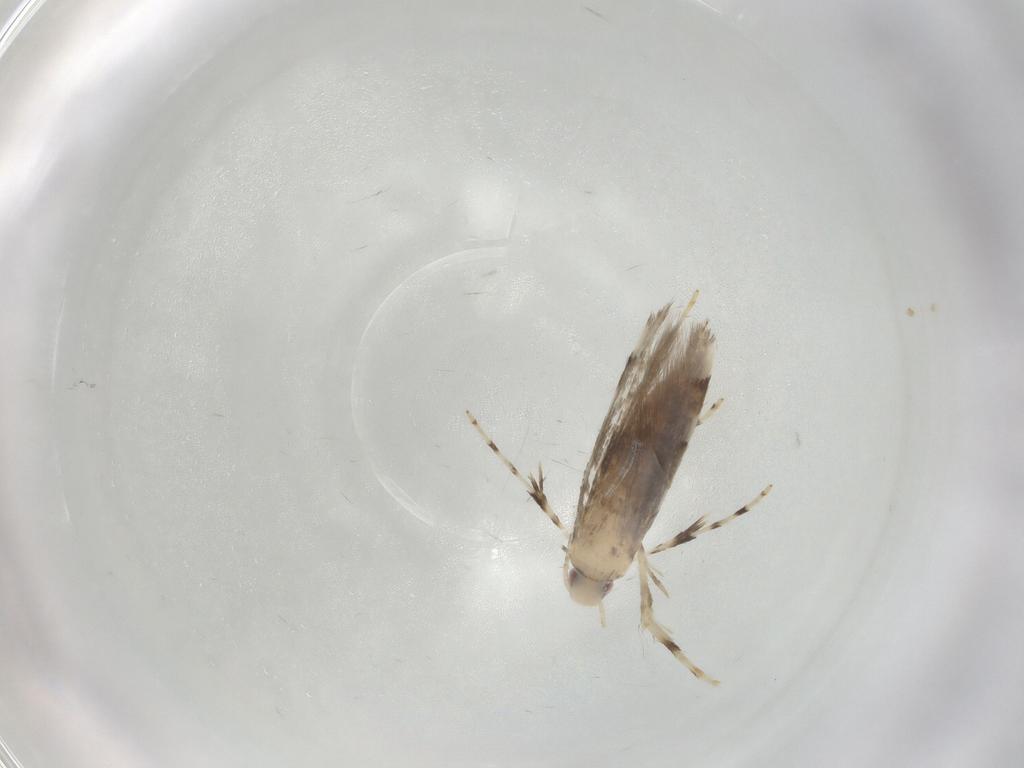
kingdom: Animalia
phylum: Arthropoda
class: Insecta
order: Lepidoptera
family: Gracillariidae
